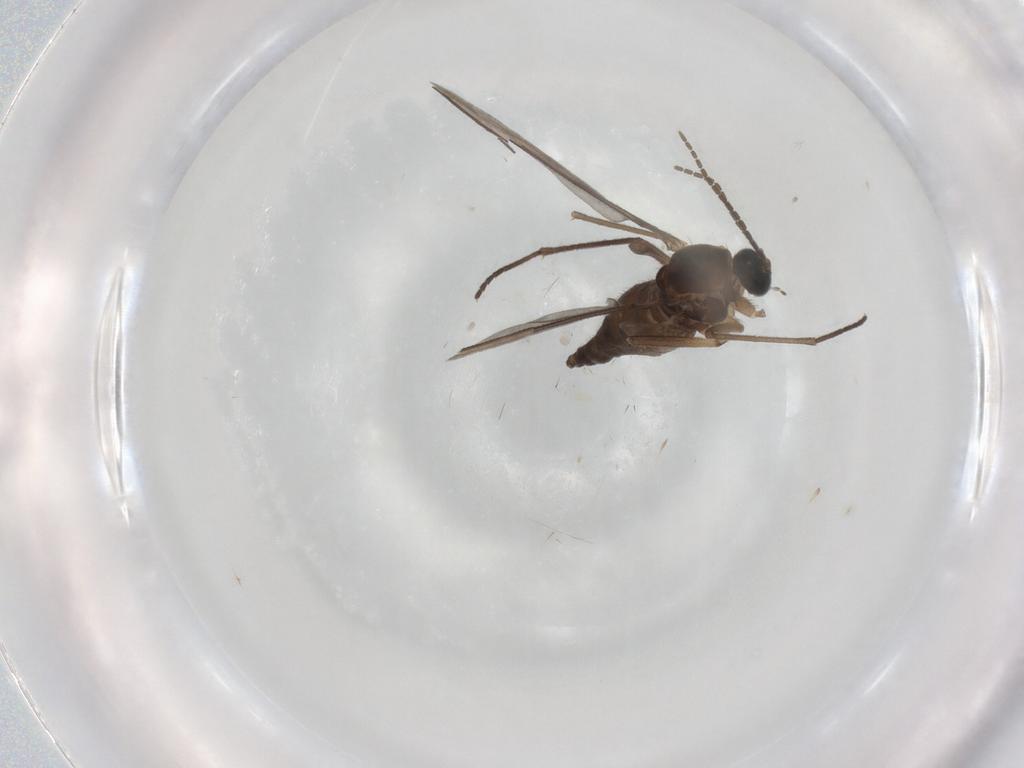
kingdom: Animalia
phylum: Arthropoda
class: Insecta
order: Diptera
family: Sciaridae
